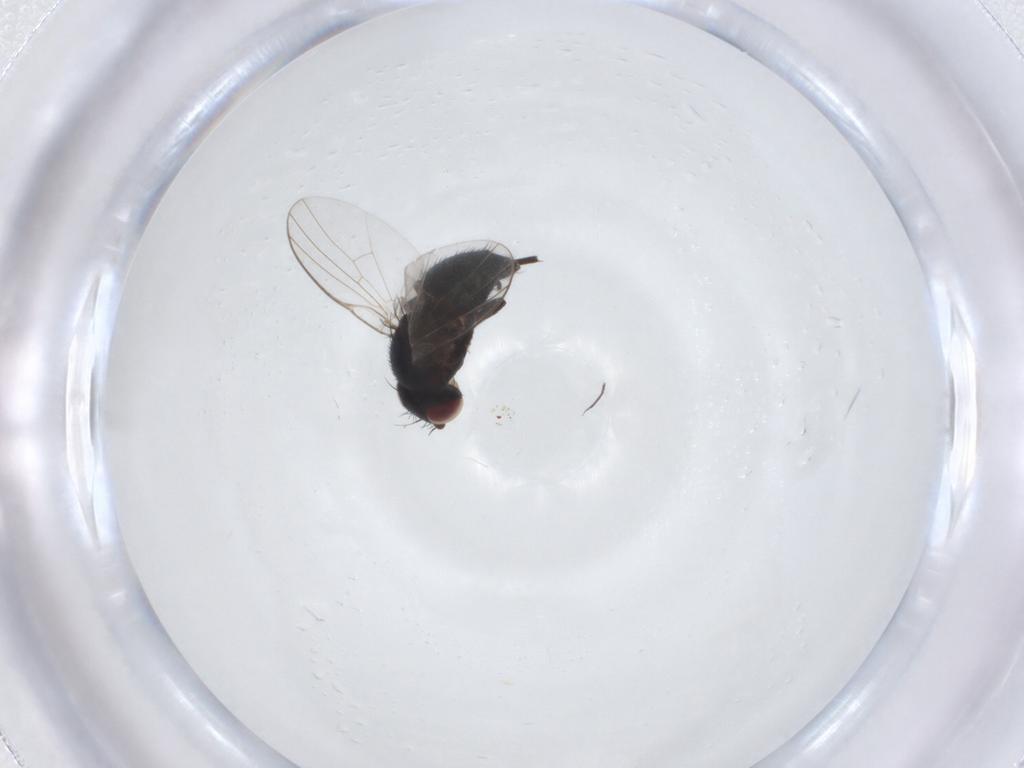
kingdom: Animalia
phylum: Arthropoda
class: Insecta
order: Diptera
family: Agromyzidae
